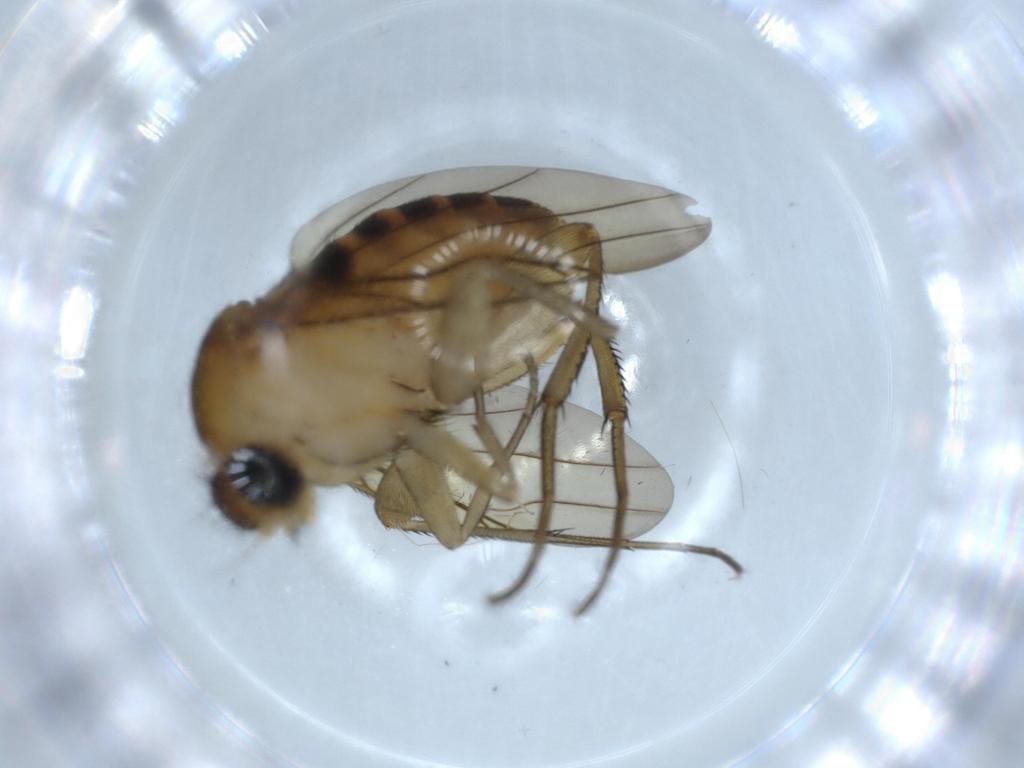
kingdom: Animalia
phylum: Arthropoda
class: Insecta
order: Diptera
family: Phoridae
